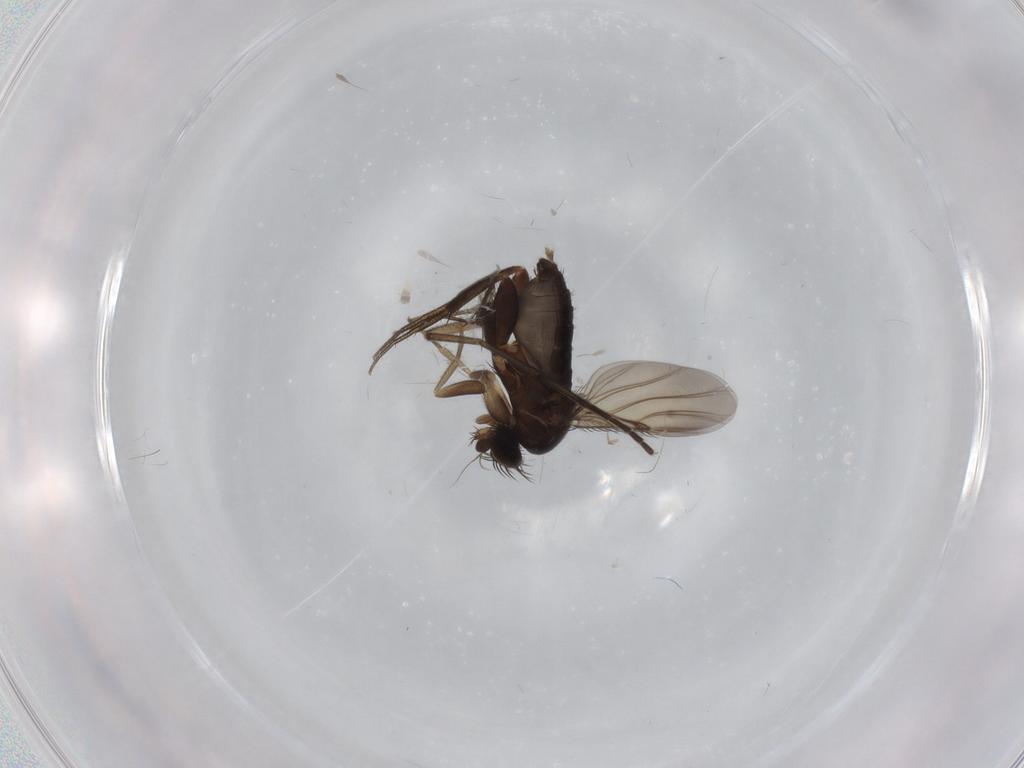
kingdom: Animalia
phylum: Arthropoda
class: Insecta
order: Diptera
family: Phoridae
